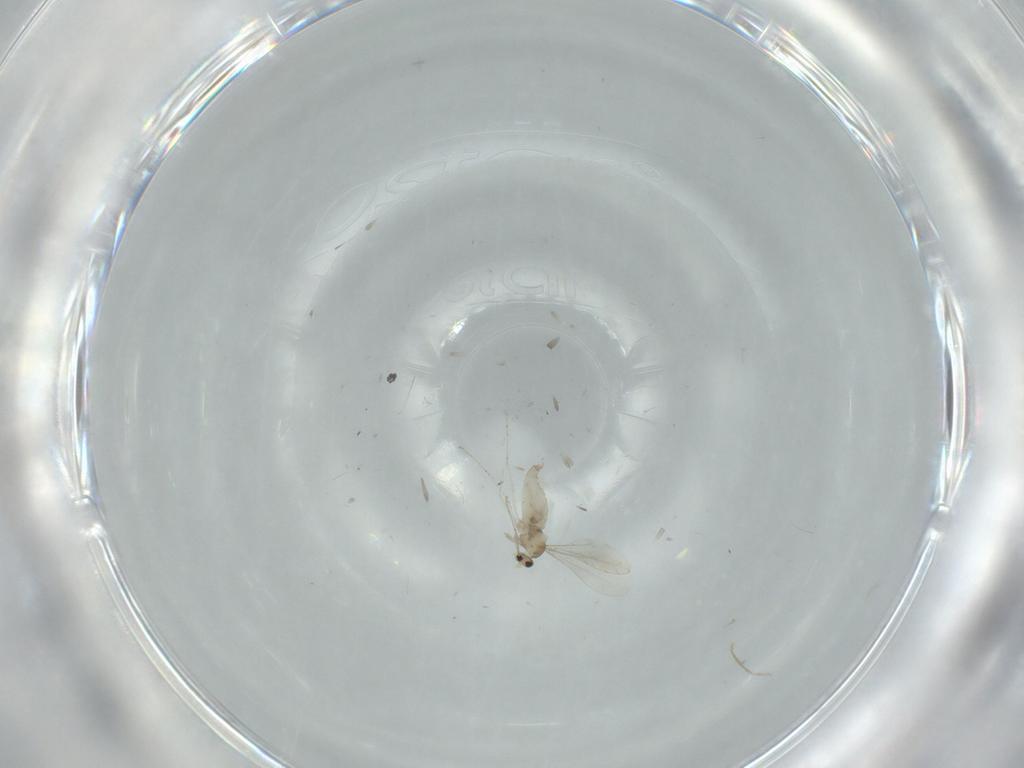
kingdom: Animalia
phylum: Arthropoda
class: Insecta
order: Diptera
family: Cecidomyiidae
